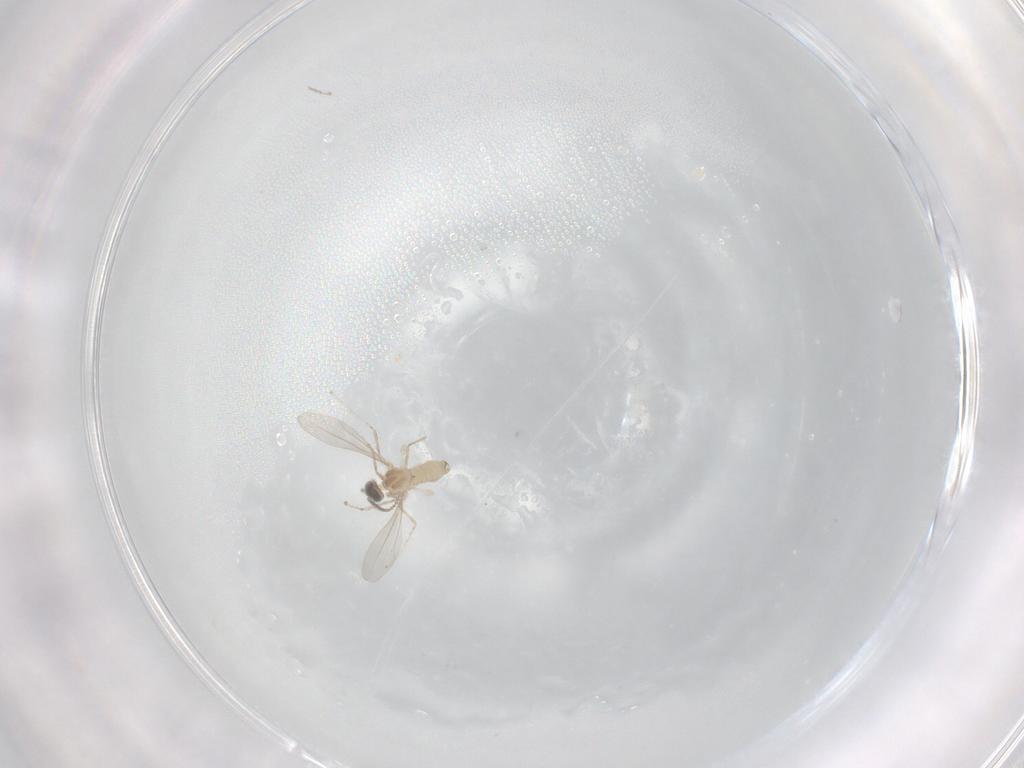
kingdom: Animalia
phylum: Arthropoda
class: Insecta
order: Diptera
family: Cecidomyiidae
